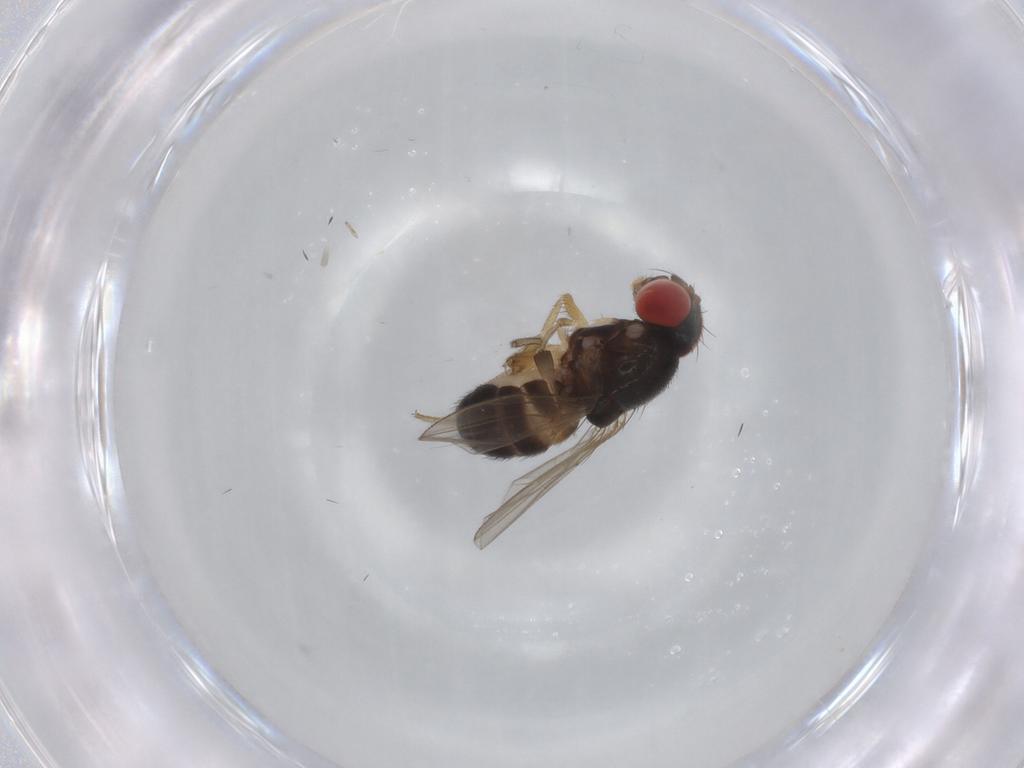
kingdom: Animalia
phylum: Arthropoda
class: Insecta
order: Diptera
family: Drosophilidae
